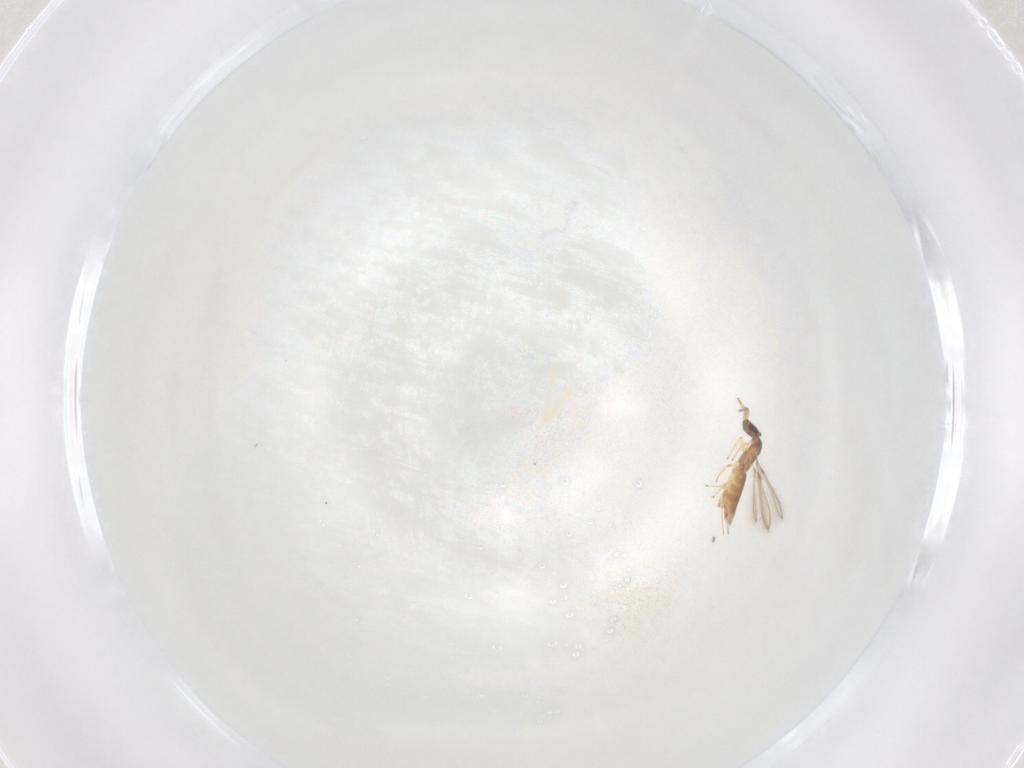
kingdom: Animalia
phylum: Arthropoda
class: Insecta
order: Hymenoptera
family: Mymaridae
